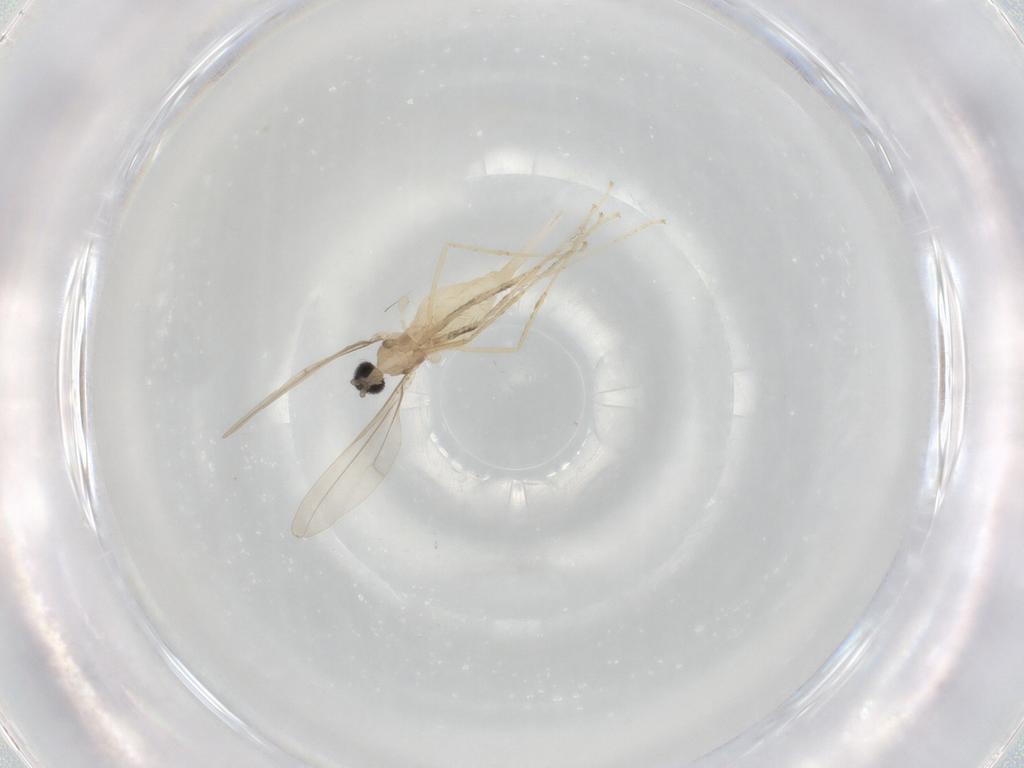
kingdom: Animalia
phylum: Arthropoda
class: Insecta
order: Diptera
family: Cecidomyiidae
